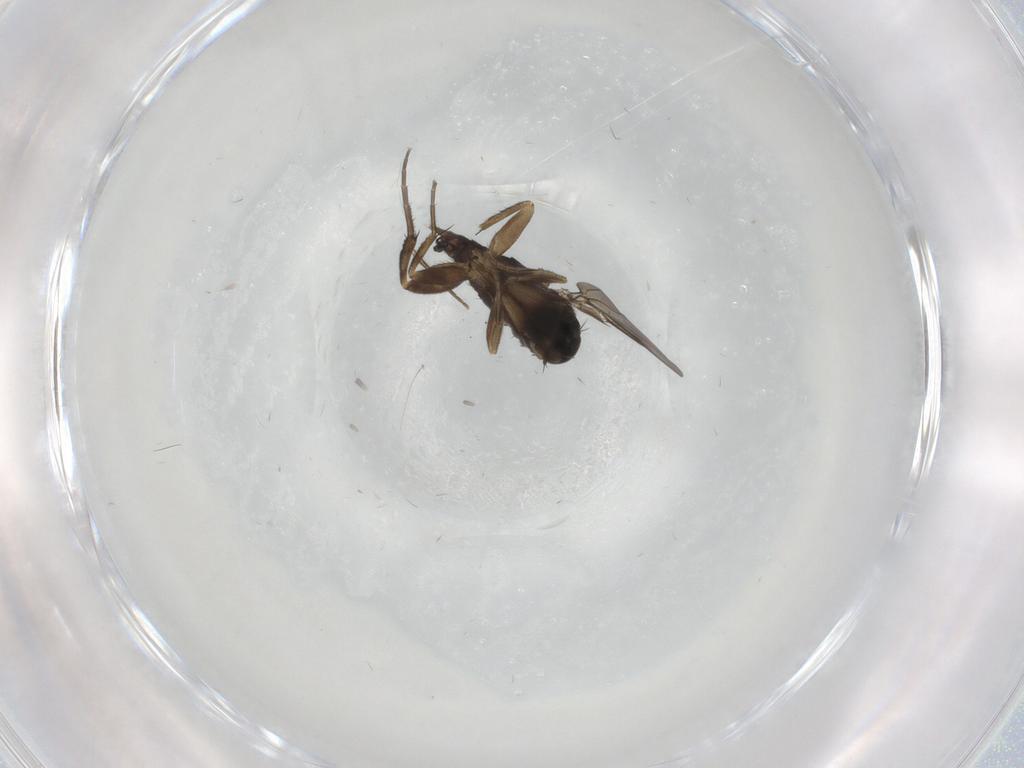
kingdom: Animalia
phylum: Arthropoda
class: Insecta
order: Diptera
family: Phoridae
